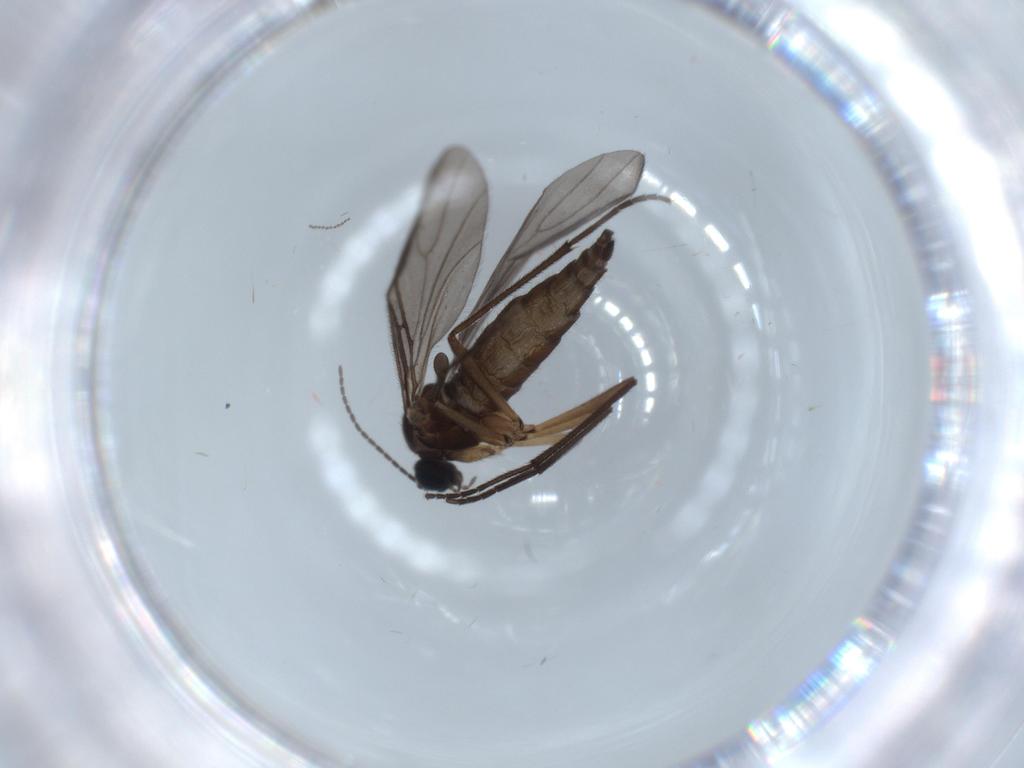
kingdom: Animalia
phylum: Arthropoda
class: Insecta
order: Diptera
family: Sciaridae
